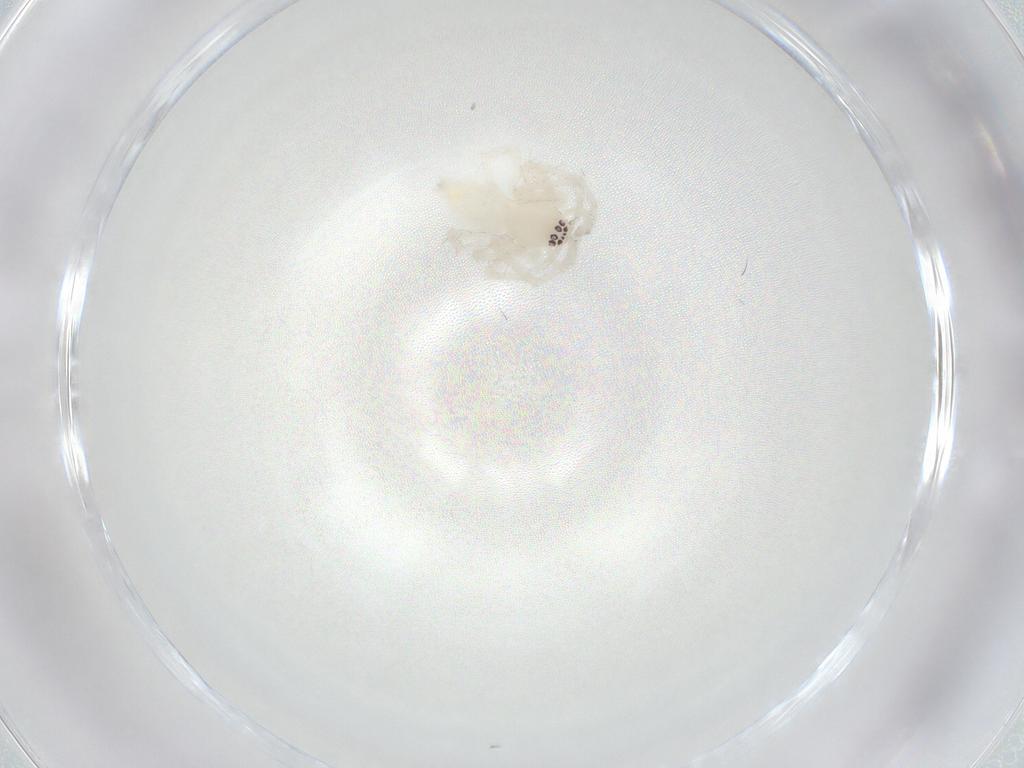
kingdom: Animalia
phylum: Arthropoda
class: Arachnida
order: Araneae
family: Anyphaenidae
